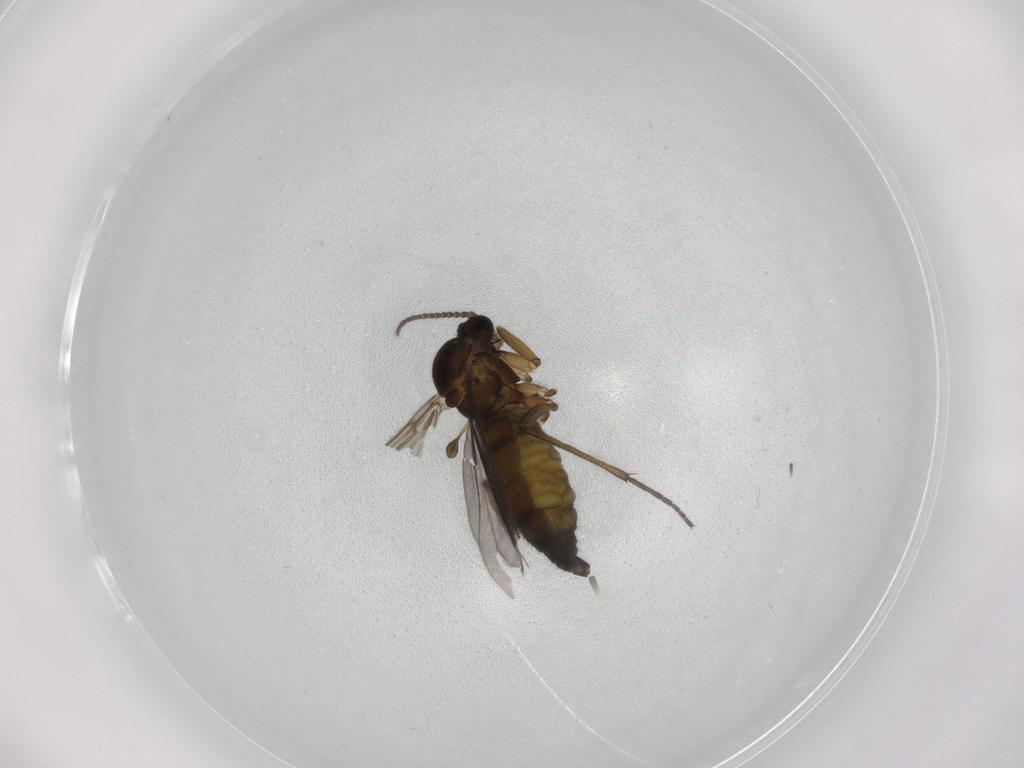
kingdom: Animalia
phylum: Arthropoda
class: Insecta
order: Diptera
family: Sciaridae
